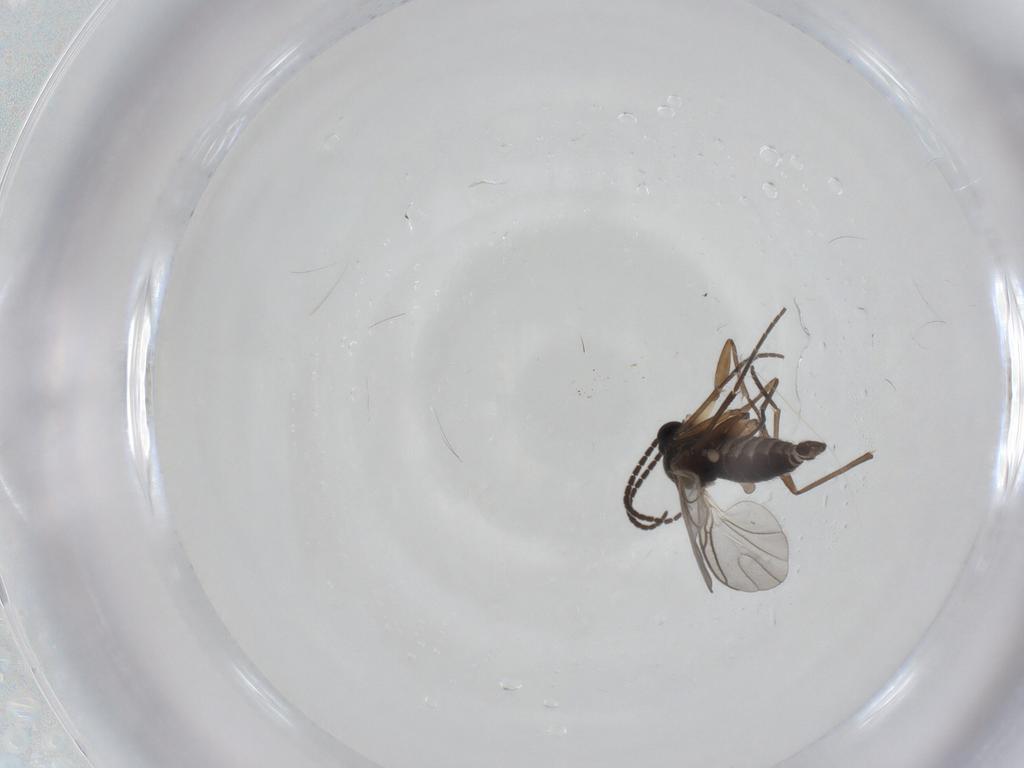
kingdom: Animalia
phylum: Arthropoda
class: Insecta
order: Diptera
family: Sciaridae
